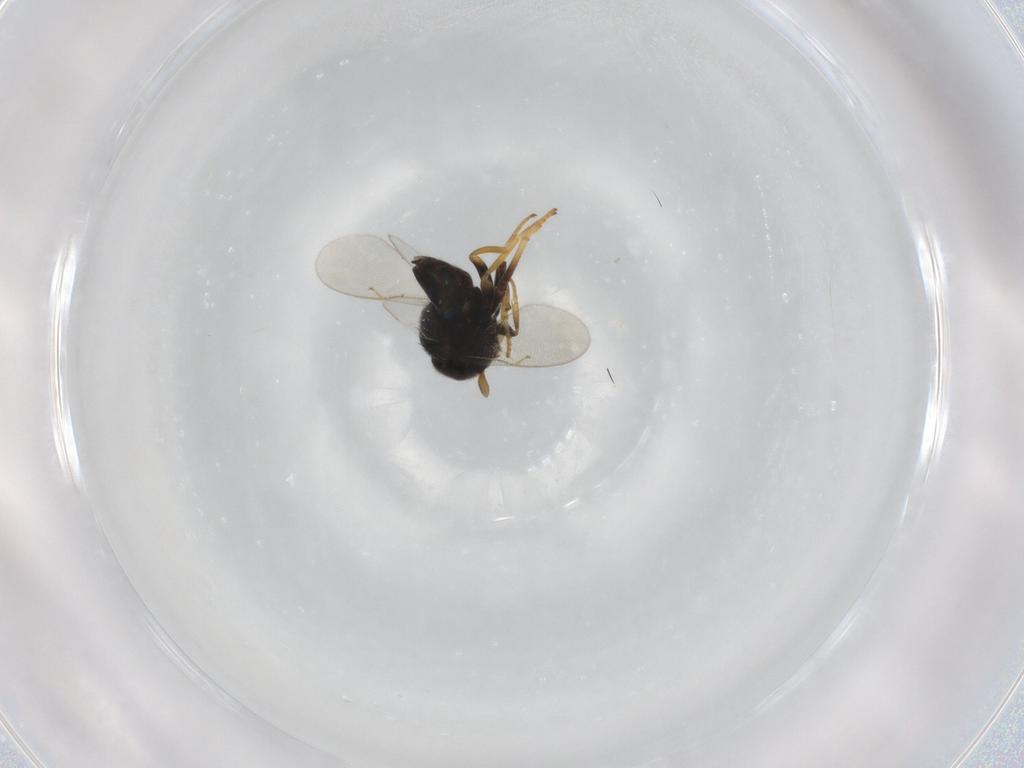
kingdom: Animalia
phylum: Arthropoda
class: Insecta
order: Hymenoptera
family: Encyrtidae
